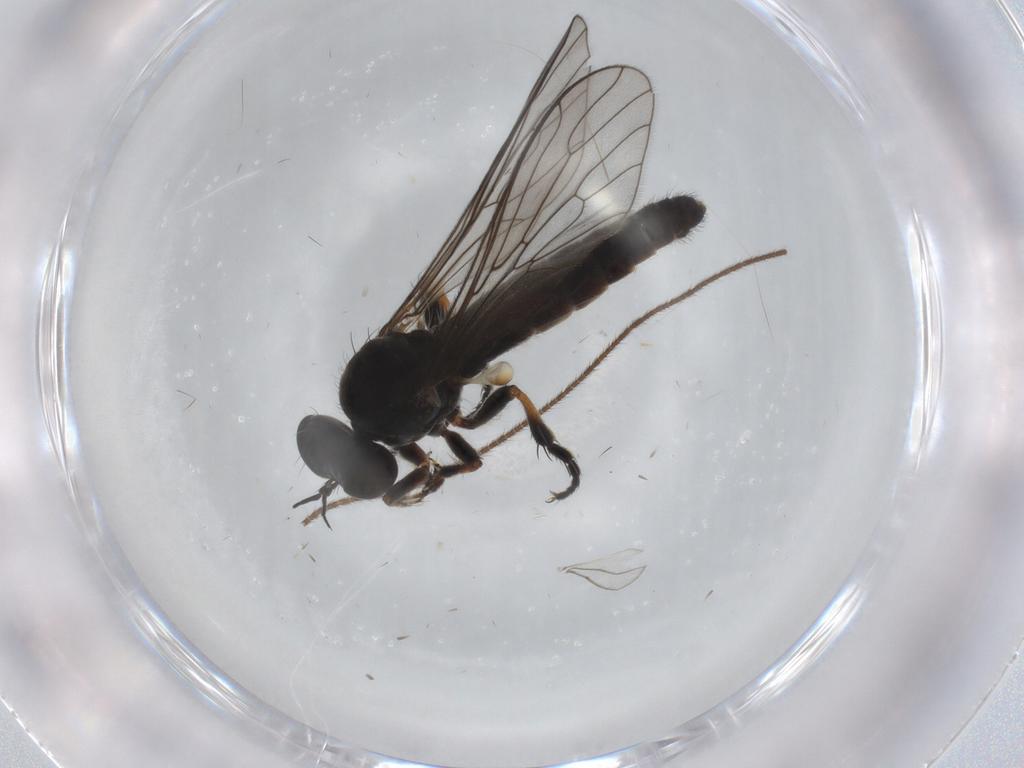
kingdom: Animalia
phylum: Arthropoda
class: Insecta
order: Diptera
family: Asilidae
